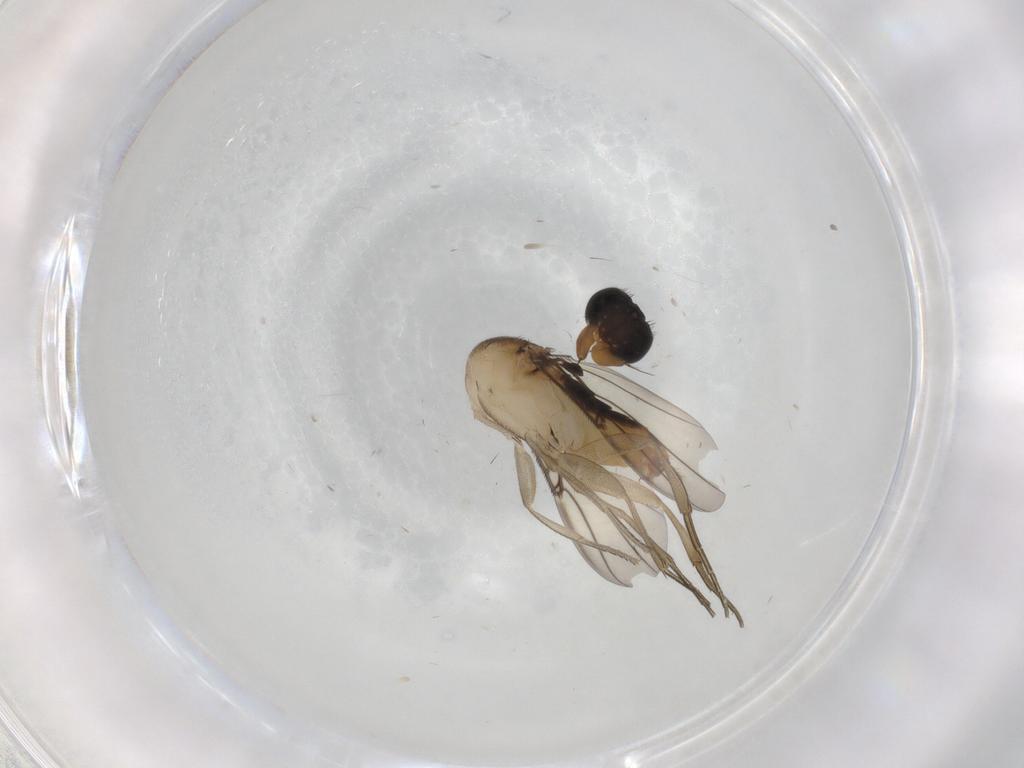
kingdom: Animalia
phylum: Arthropoda
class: Insecta
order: Diptera
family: Phoridae
